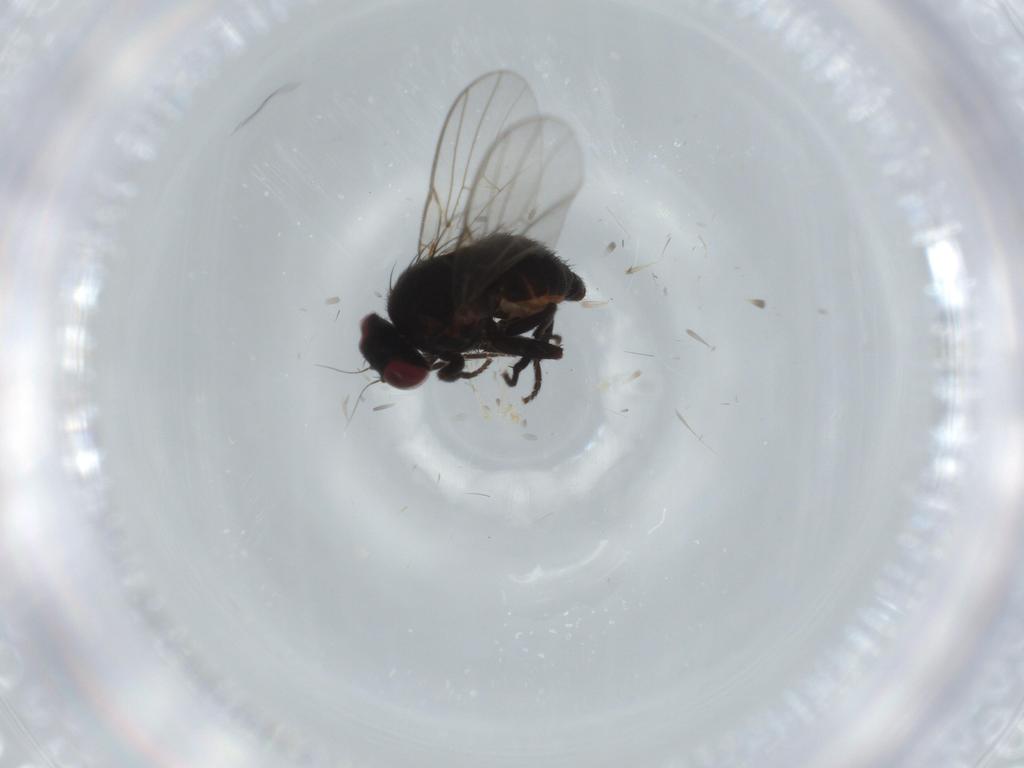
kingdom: Animalia
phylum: Arthropoda
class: Insecta
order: Diptera
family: Agromyzidae
